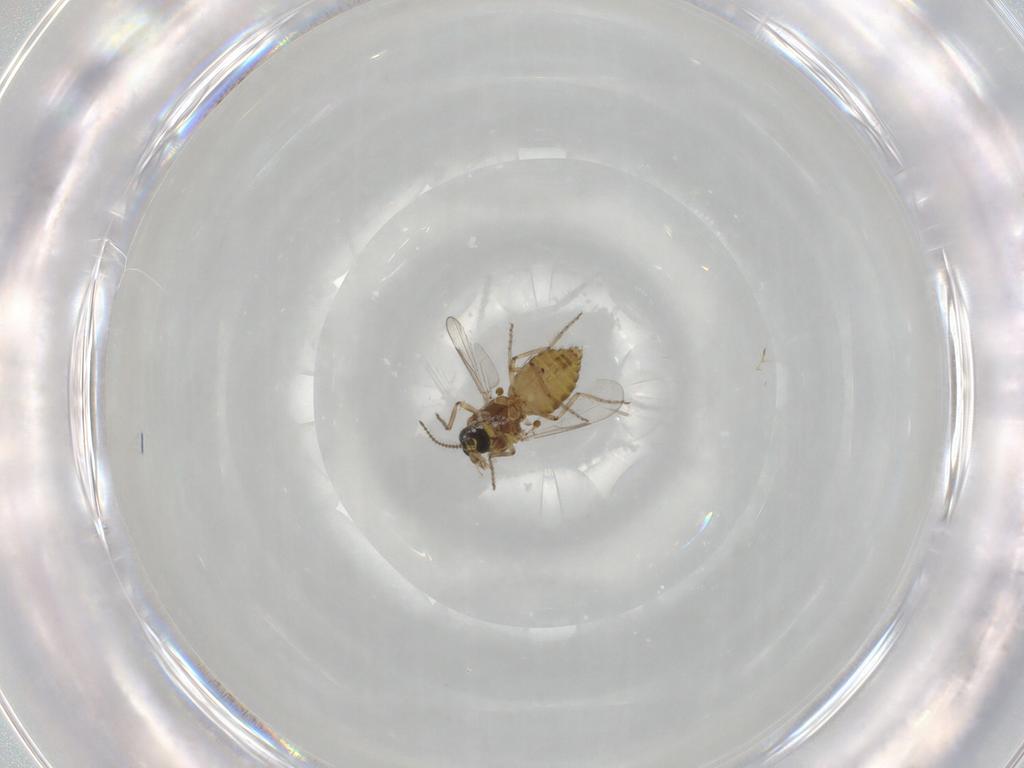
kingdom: Animalia
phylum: Arthropoda
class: Insecta
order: Diptera
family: Ceratopogonidae
